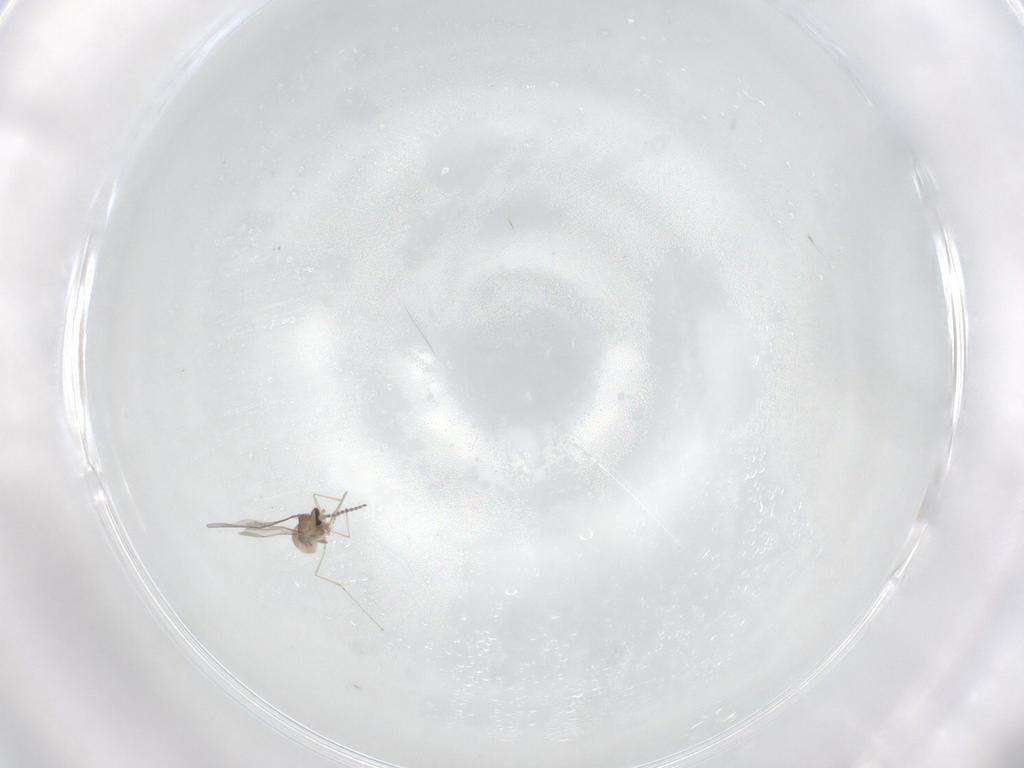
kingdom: Animalia
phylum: Arthropoda
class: Insecta
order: Diptera
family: Cecidomyiidae
